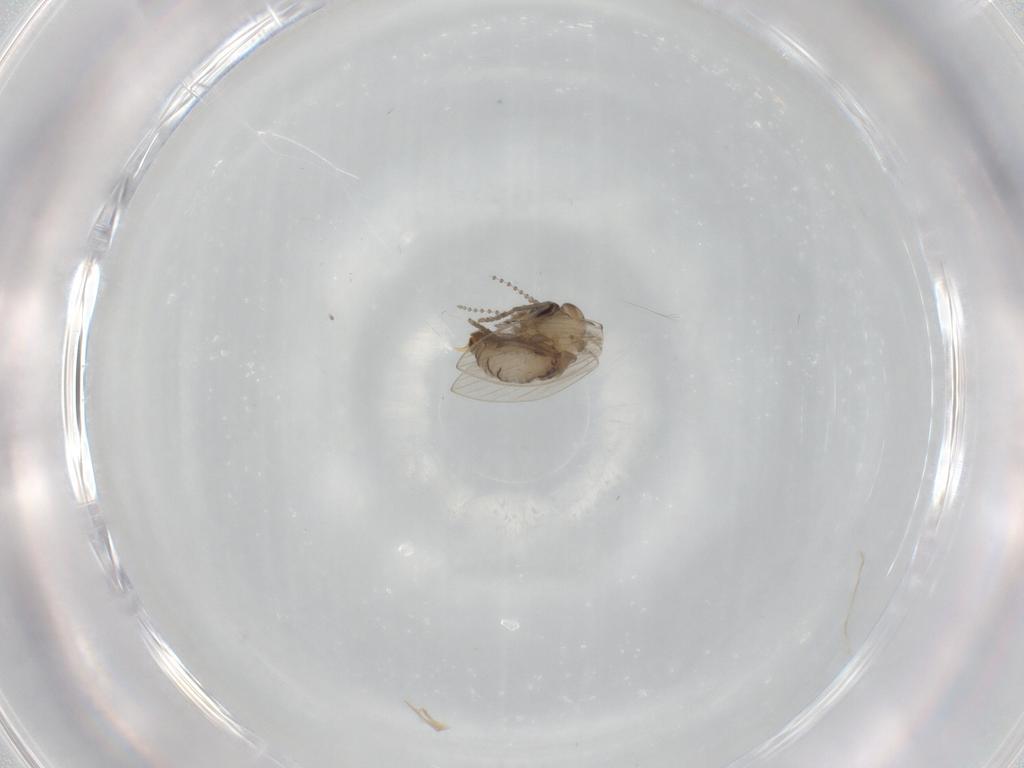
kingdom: Animalia
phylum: Arthropoda
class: Insecta
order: Diptera
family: Psychodidae
